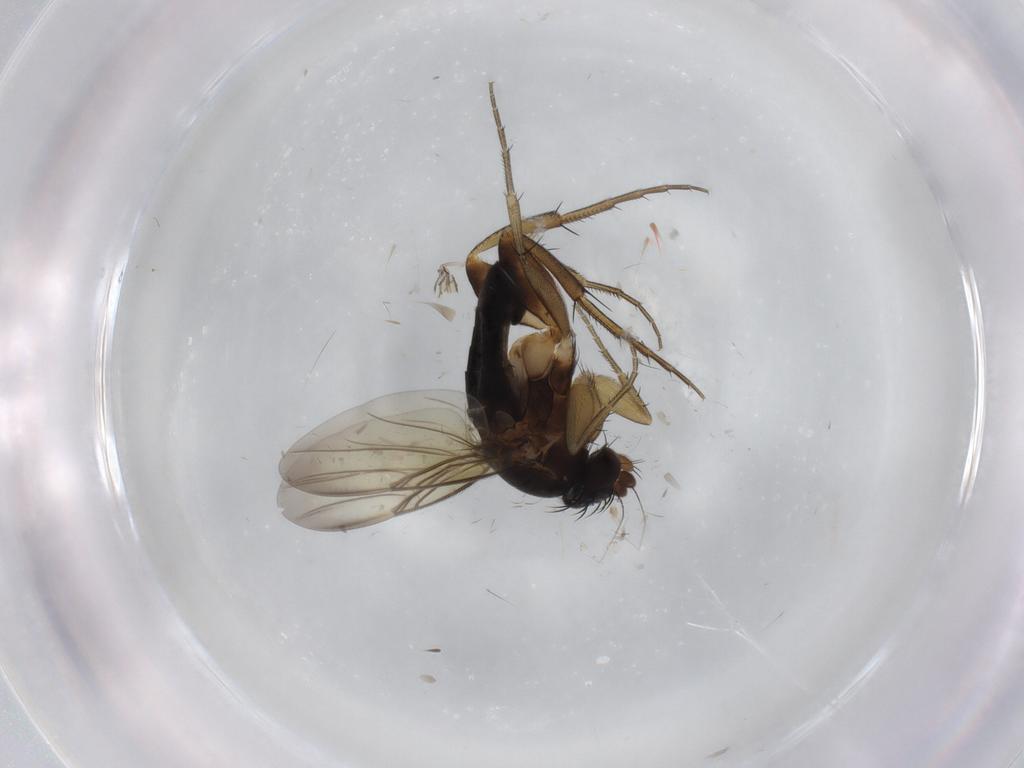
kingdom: Animalia
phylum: Arthropoda
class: Insecta
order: Diptera
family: Phoridae
